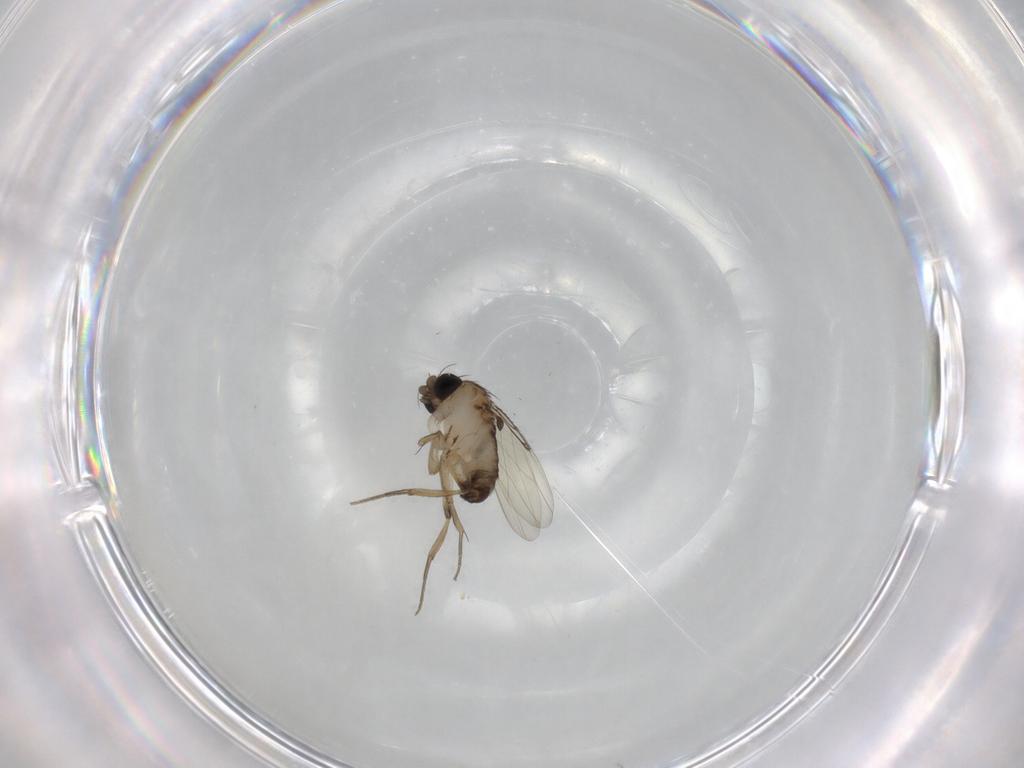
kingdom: Animalia
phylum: Arthropoda
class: Insecta
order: Diptera
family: Phoridae
